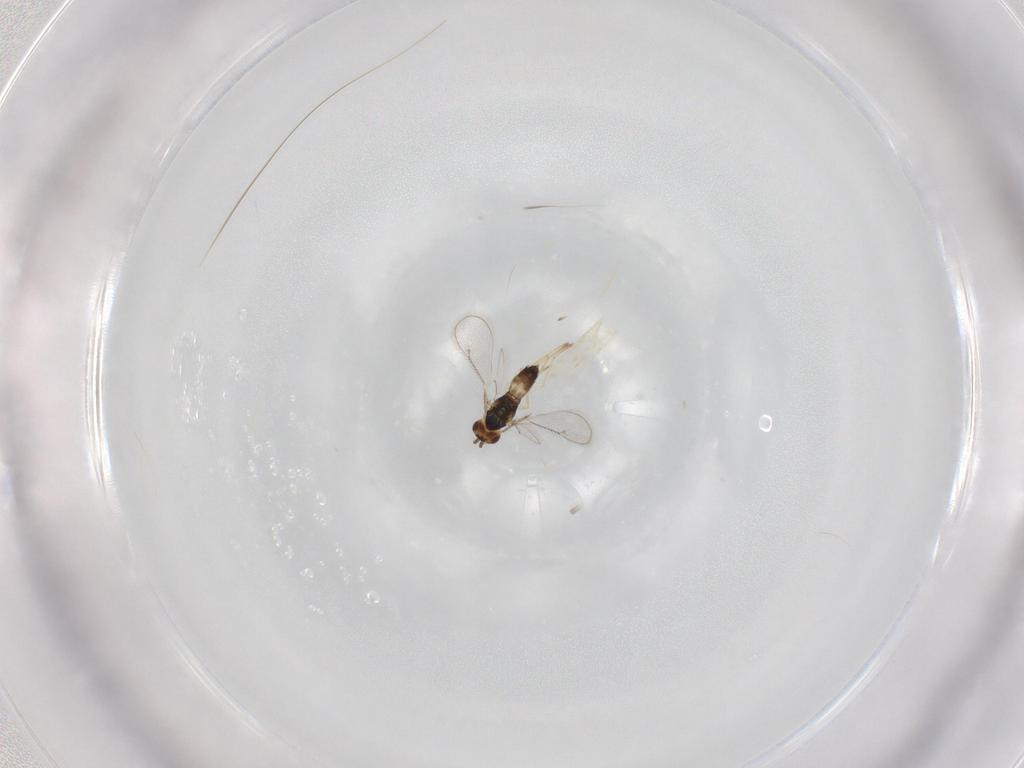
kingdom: Animalia
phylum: Arthropoda
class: Insecta
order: Hymenoptera
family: Eulophidae
